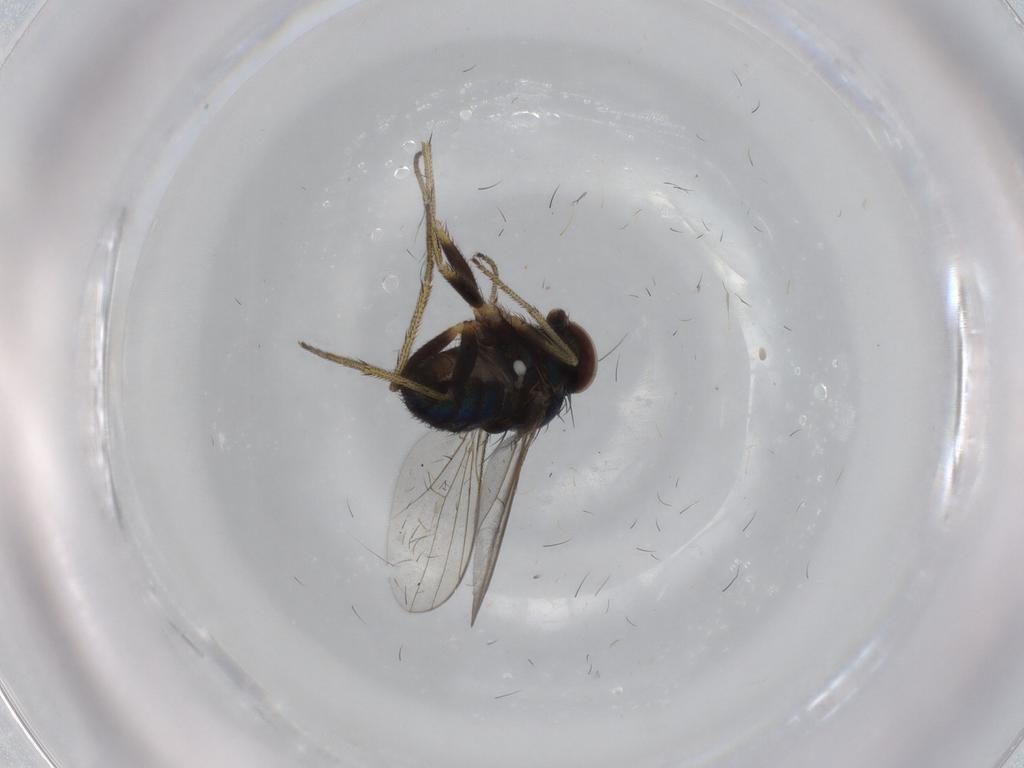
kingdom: Animalia
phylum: Arthropoda
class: Insecta
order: Diptera
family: Dolichopodidae
